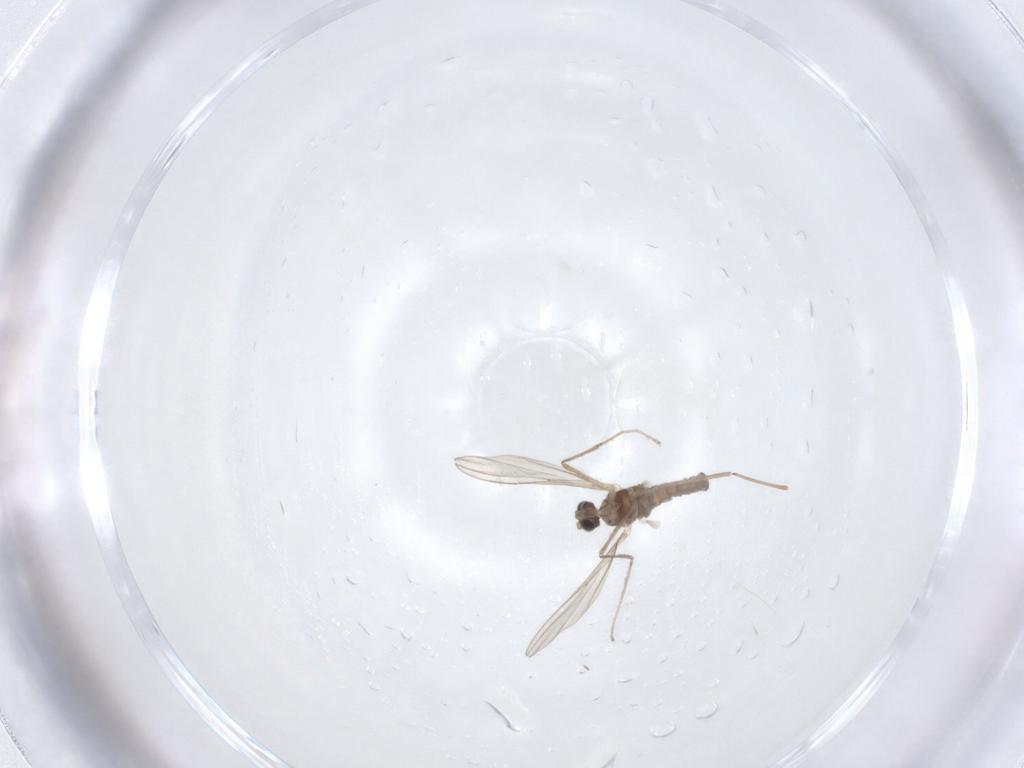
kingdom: Animalia
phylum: Arthropoda
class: Insecta
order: Diptera
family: Cecidomyiidae
